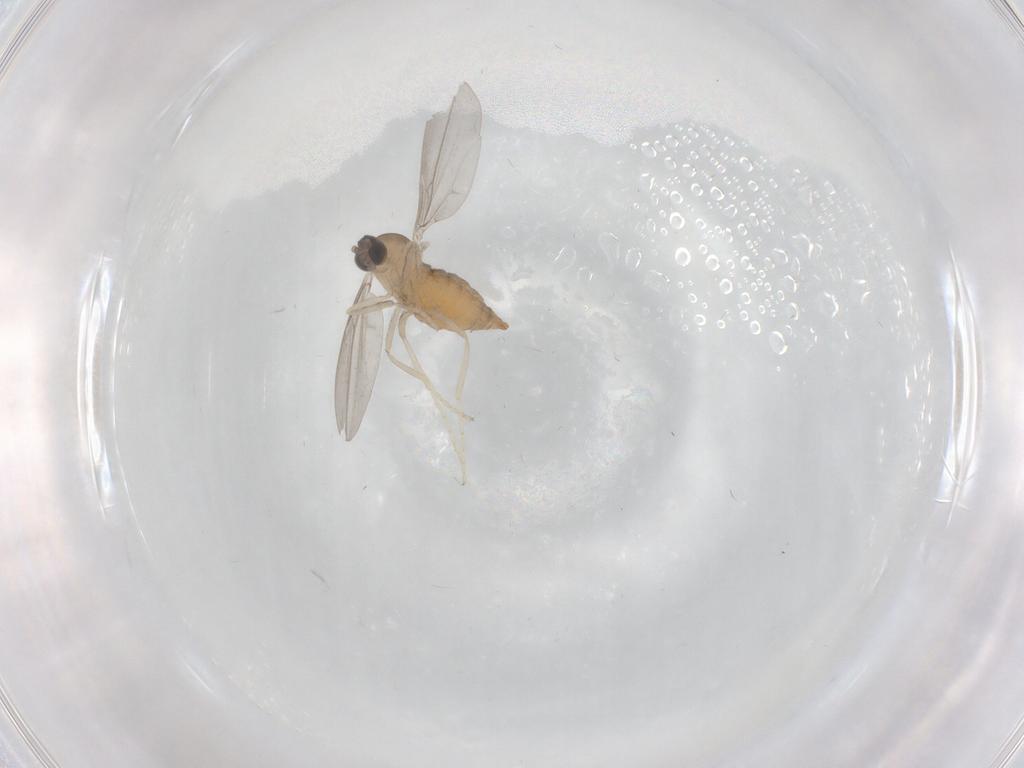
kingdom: Animalia
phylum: Arthropoda
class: Insecta
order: Diptera
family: Cecidomyiidae
